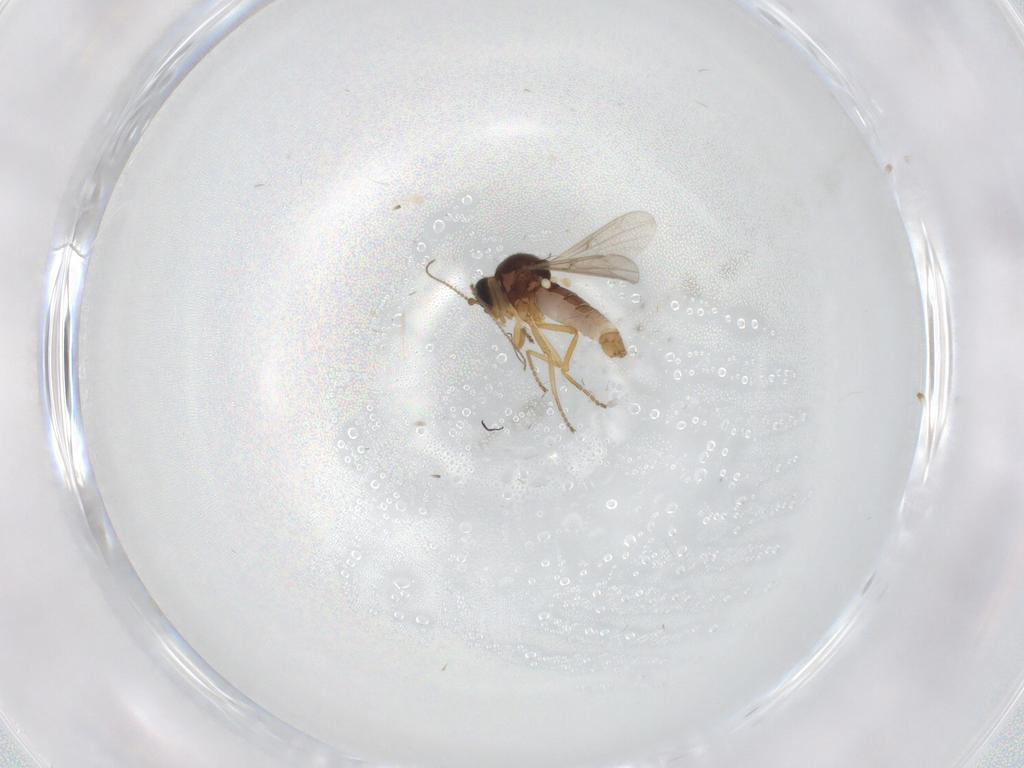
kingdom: Animalia
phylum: Arthropoda
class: Insecta
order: Diptera
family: Ceratopogonidae
